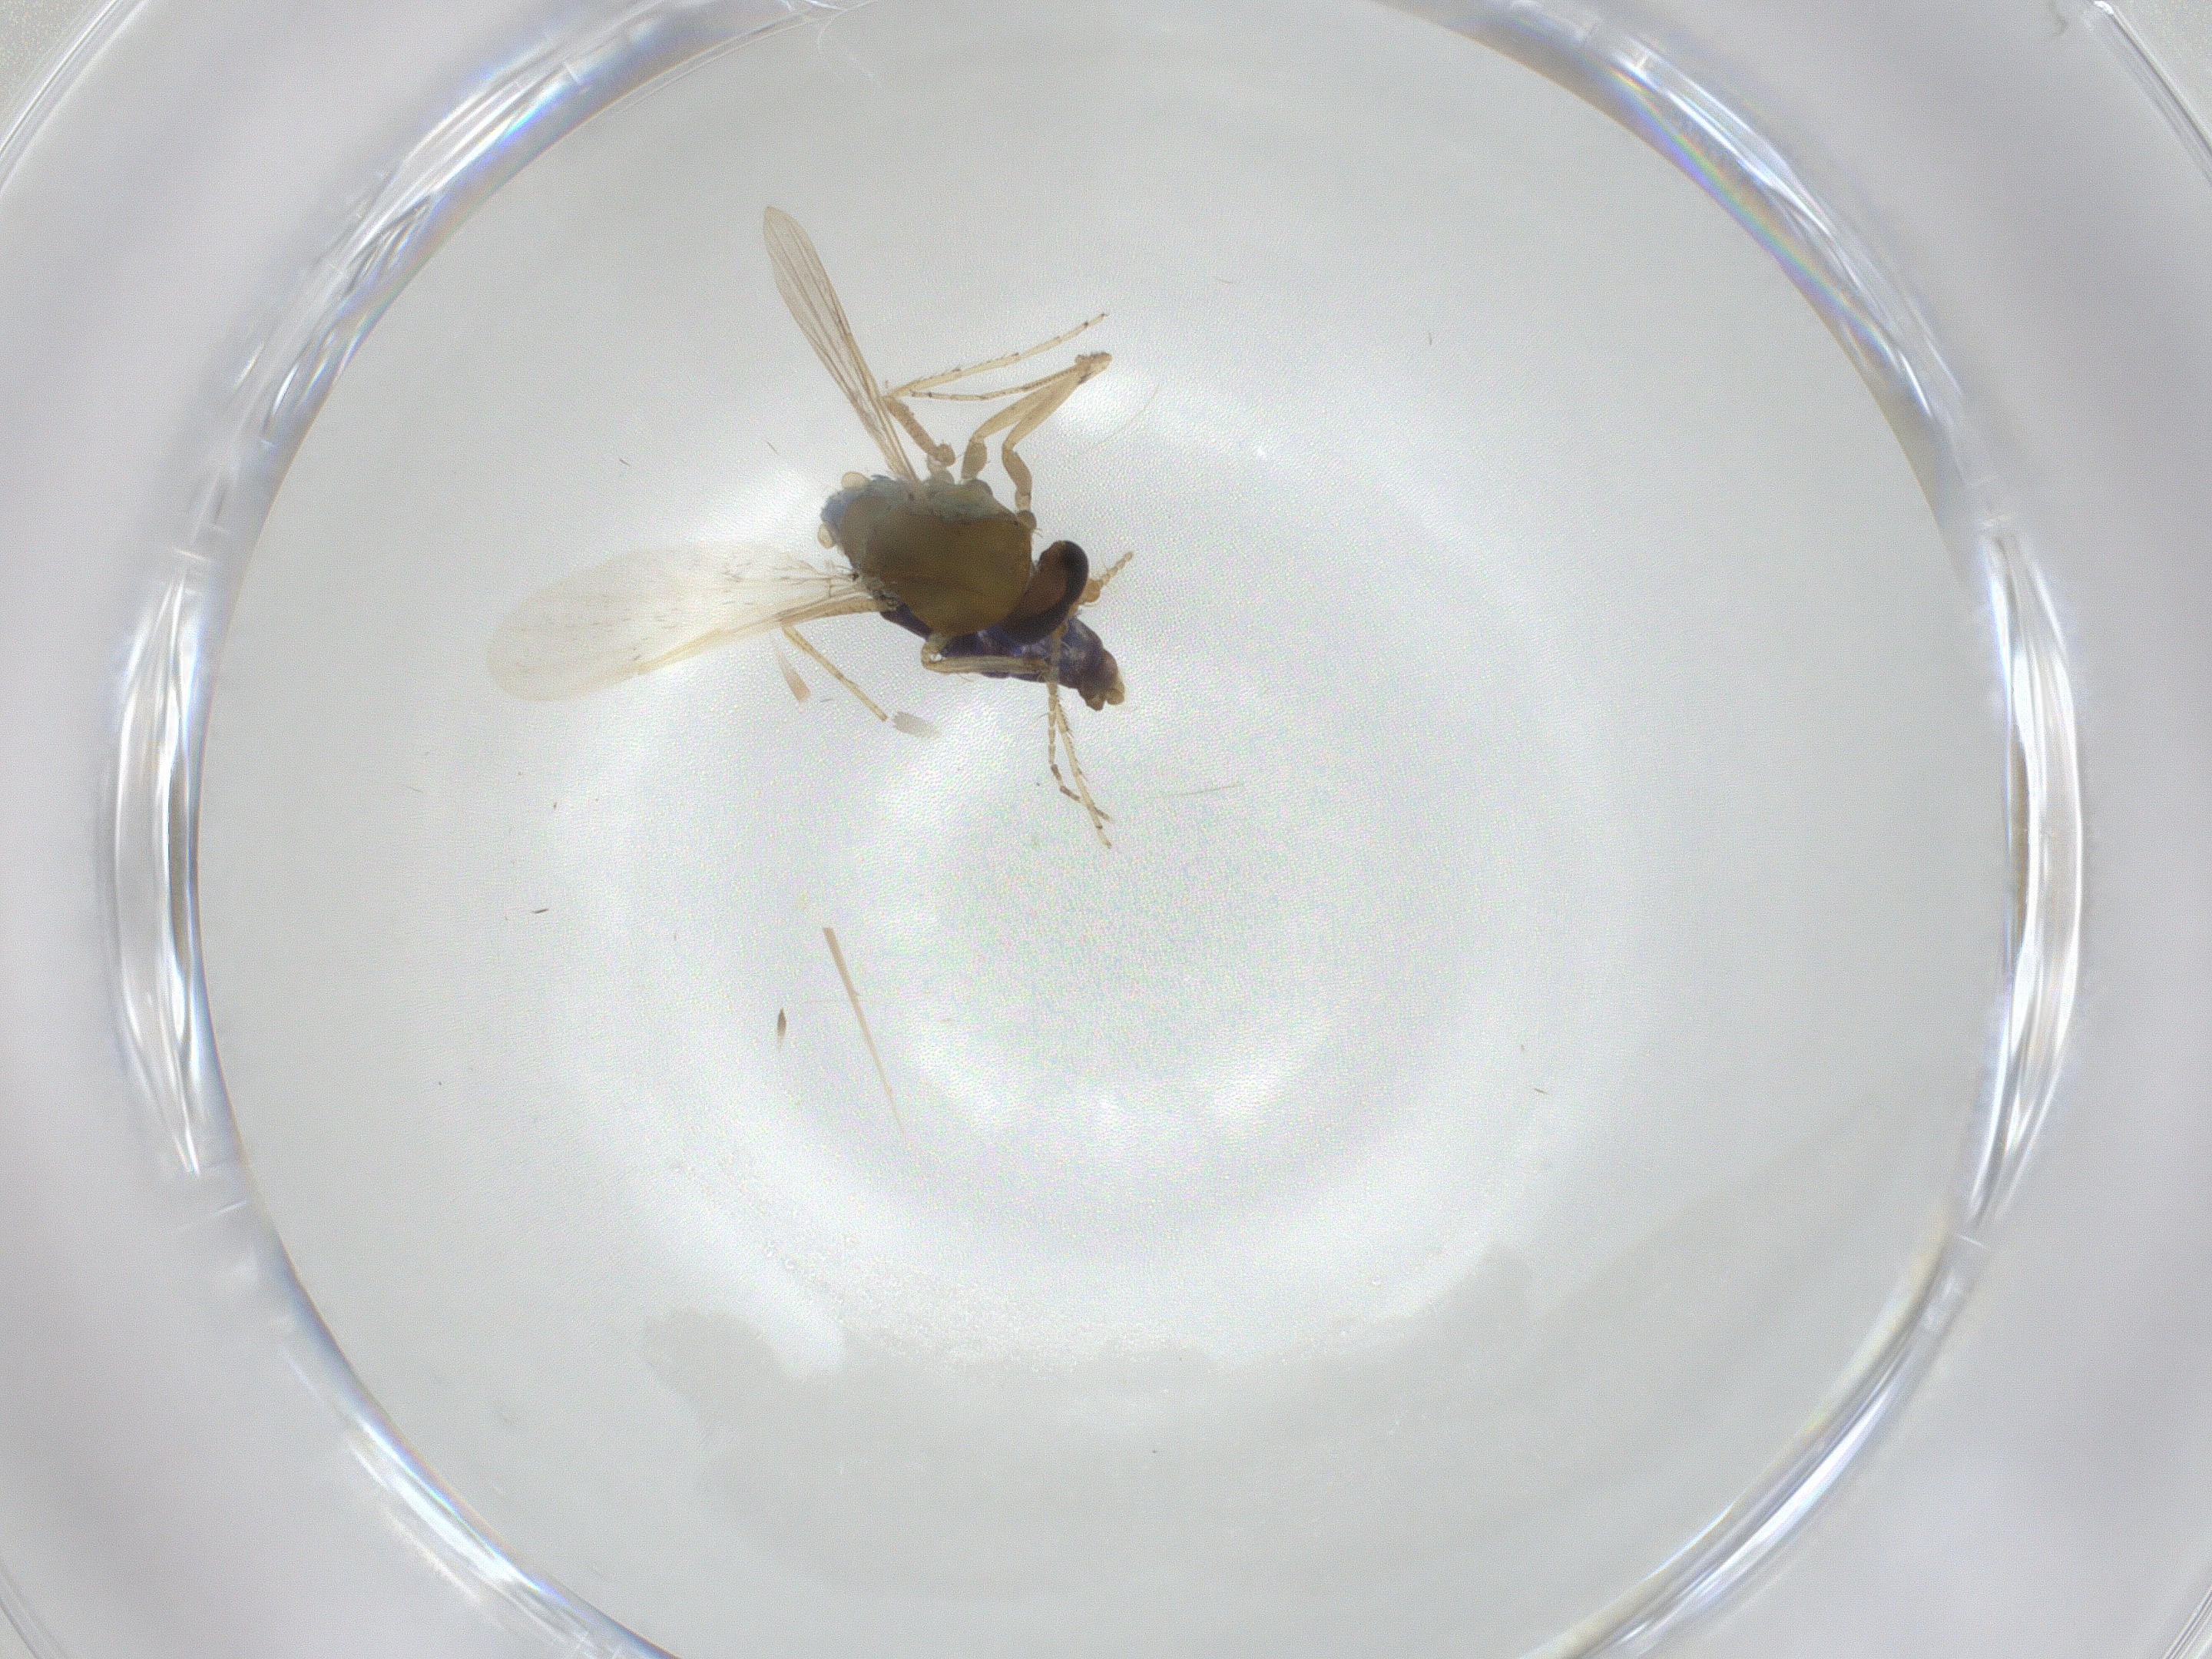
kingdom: Animalia
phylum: Arthropoda
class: Insecta
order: Diptera
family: Ceratopogonidae
